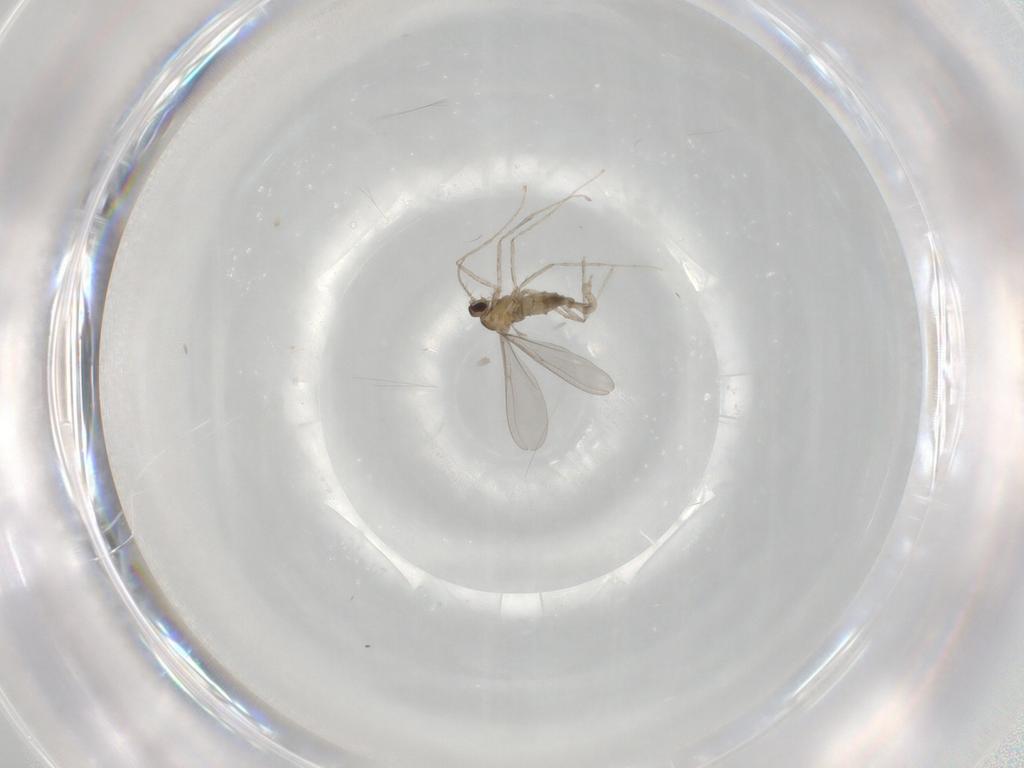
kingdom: Animalia
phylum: Arthropoda
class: Insecta
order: Diptera
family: Cecidomyiidae
